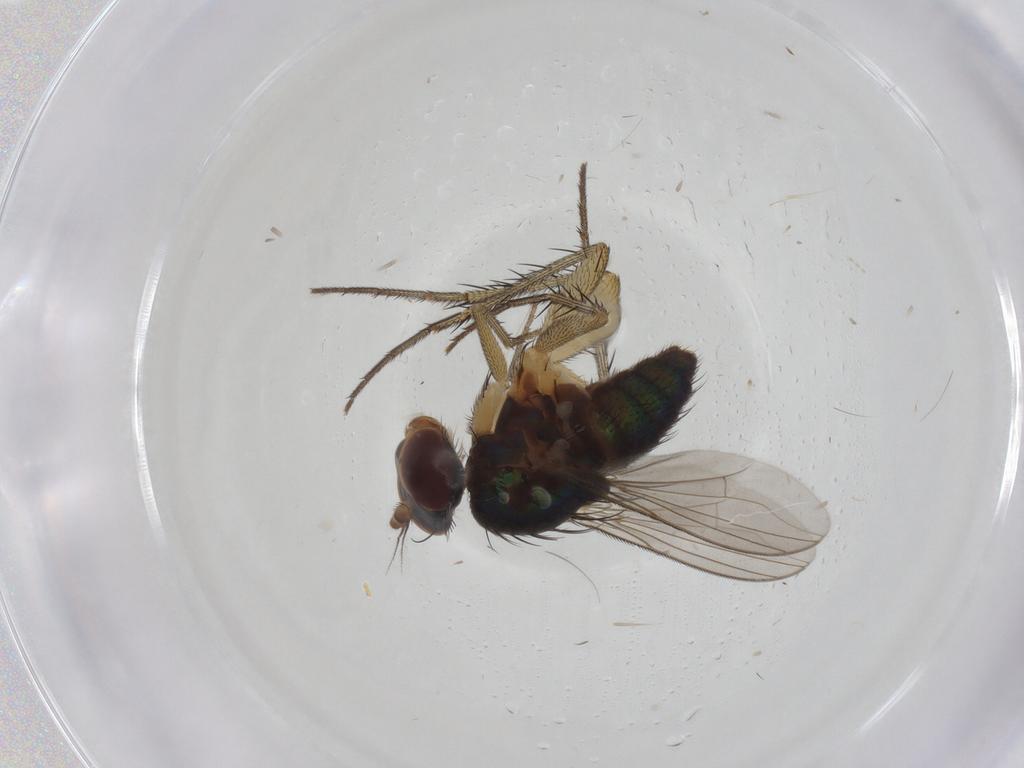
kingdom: Animalia
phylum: Arthropoda
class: Insecta
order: Diptera
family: Dolichopodidae
